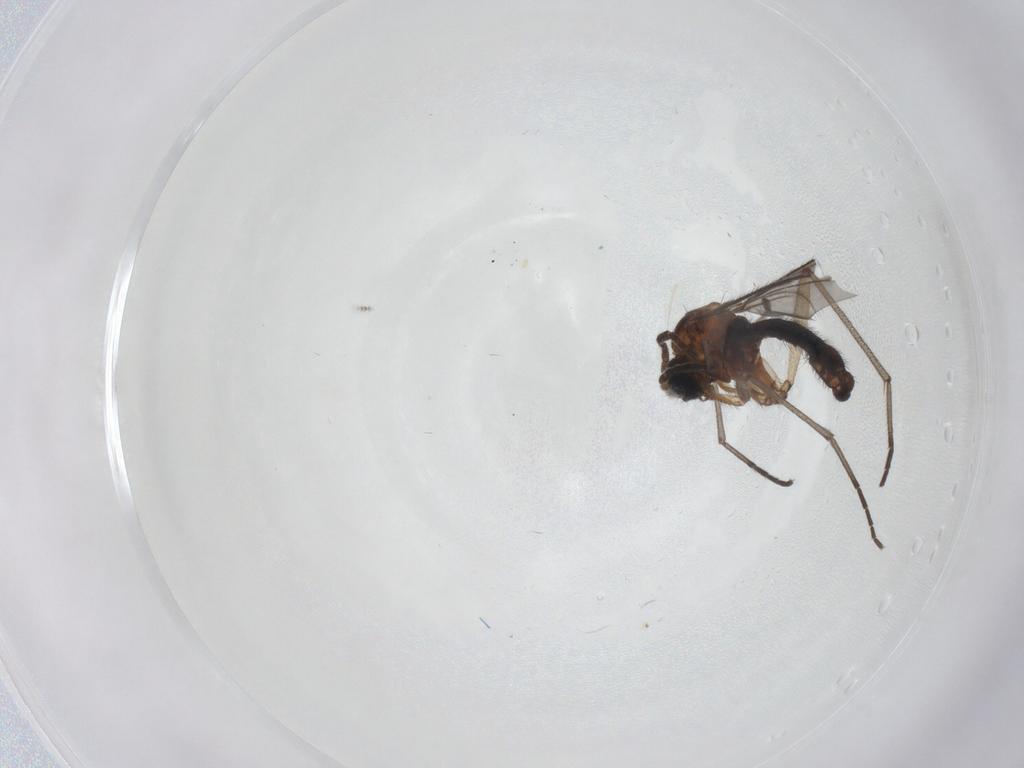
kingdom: Animalia
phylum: Arthropoda
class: Insecta
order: Diptera
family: Sciaridae
